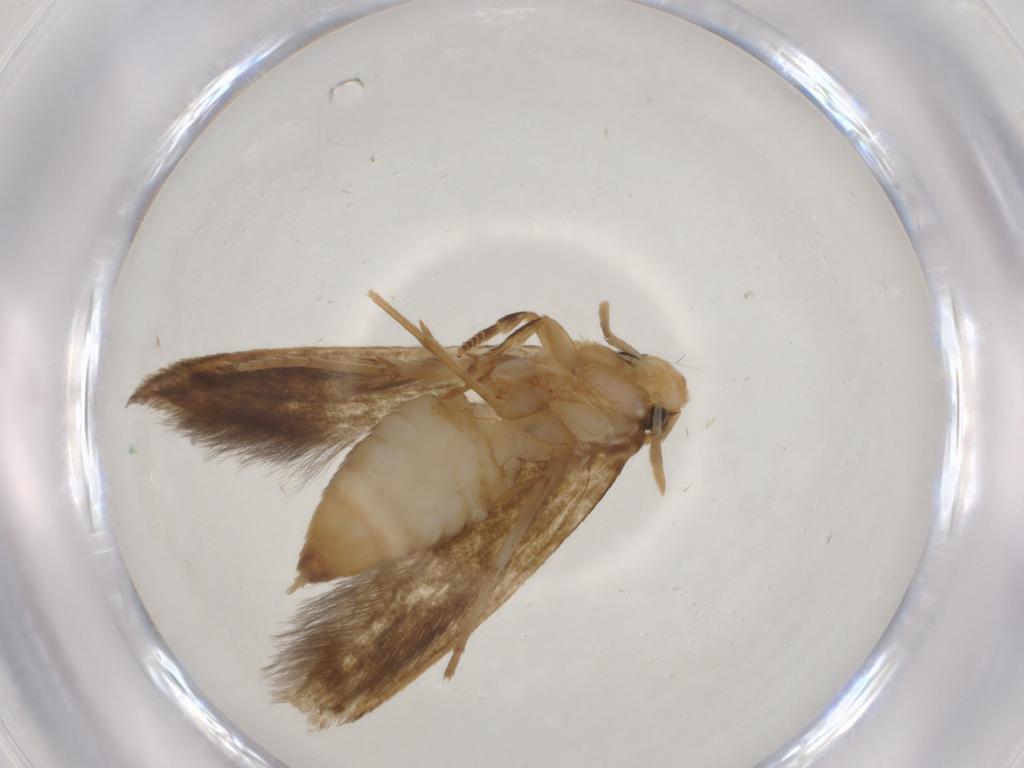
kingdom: Animalia
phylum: Arthropoda
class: Insecta
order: Lepidoptera
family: Tineidae
